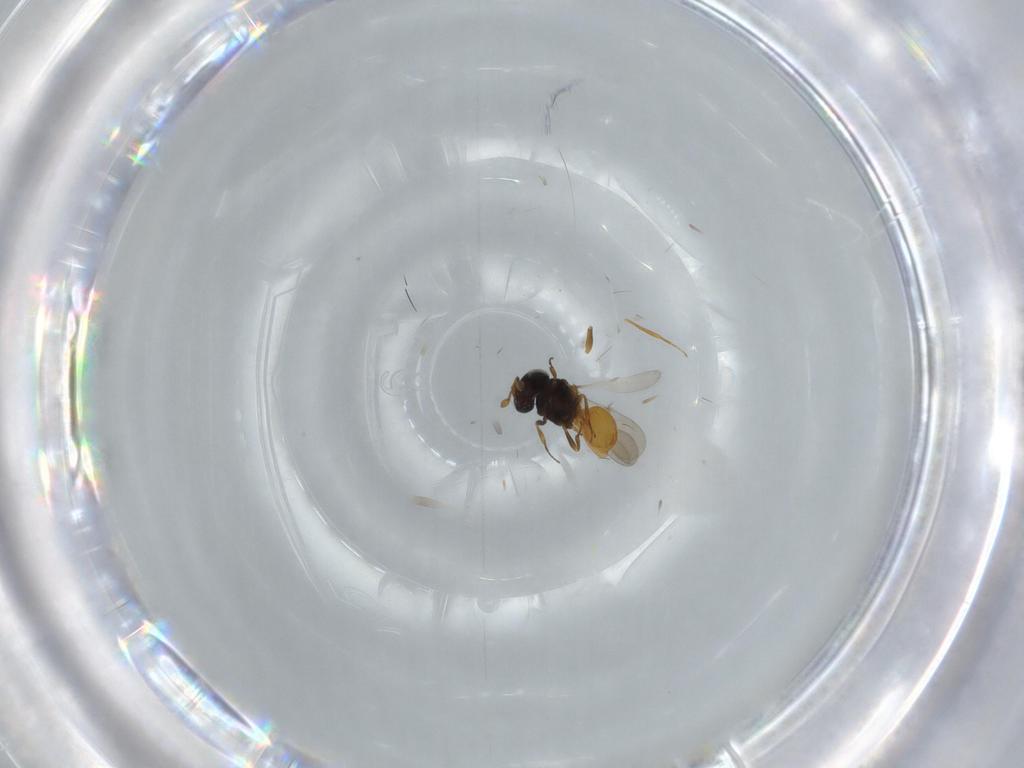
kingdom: Animalia
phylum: Arthropoda
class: Insecta
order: Hymenoptera
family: Scelionidae
